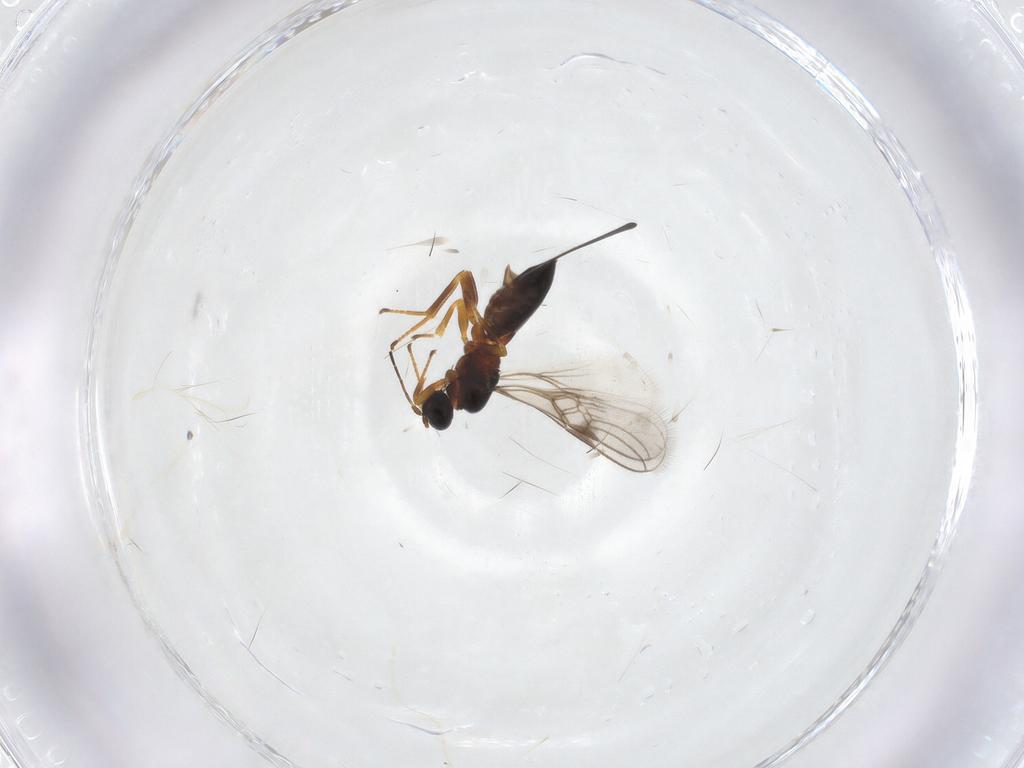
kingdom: Animalia
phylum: Arthropoda
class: Insecta
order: Hymenoptera
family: Braconidae
